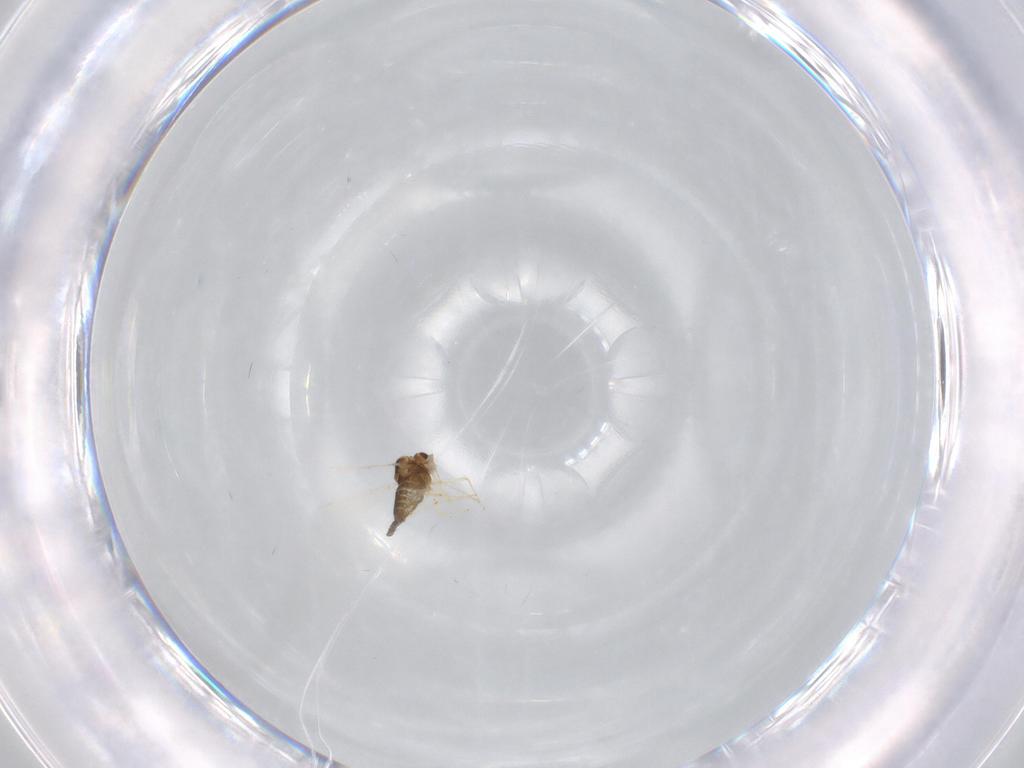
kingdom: Animalia
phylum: Arthropoda
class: Insecta
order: Diptera
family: Chironomidae
